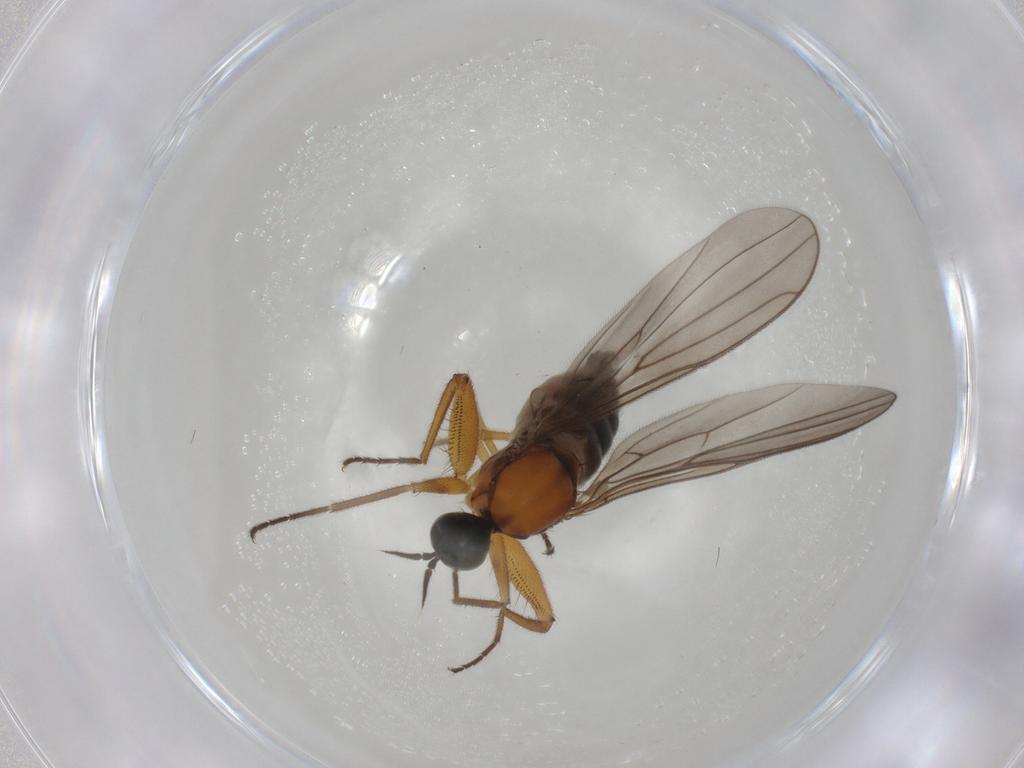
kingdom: Animalia
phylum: Arthropoda
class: Insecta
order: Diptera
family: Hybotidae
